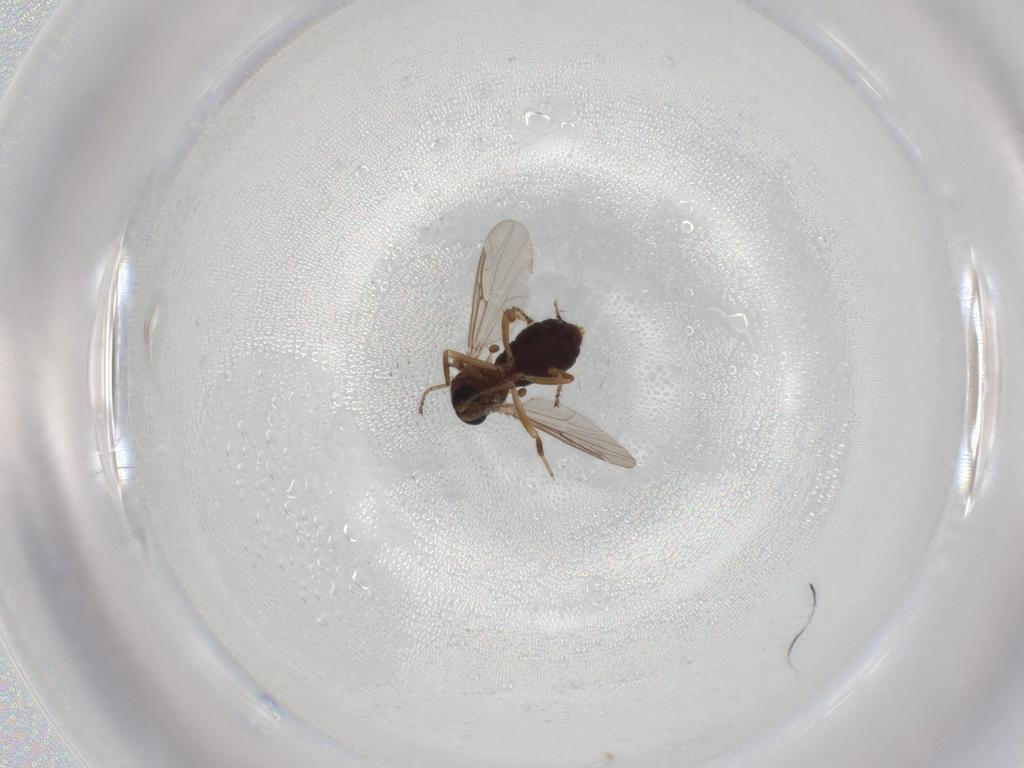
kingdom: Animalia
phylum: Arthropoda
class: Insecta
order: Diptera
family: Ceratopogonidae
